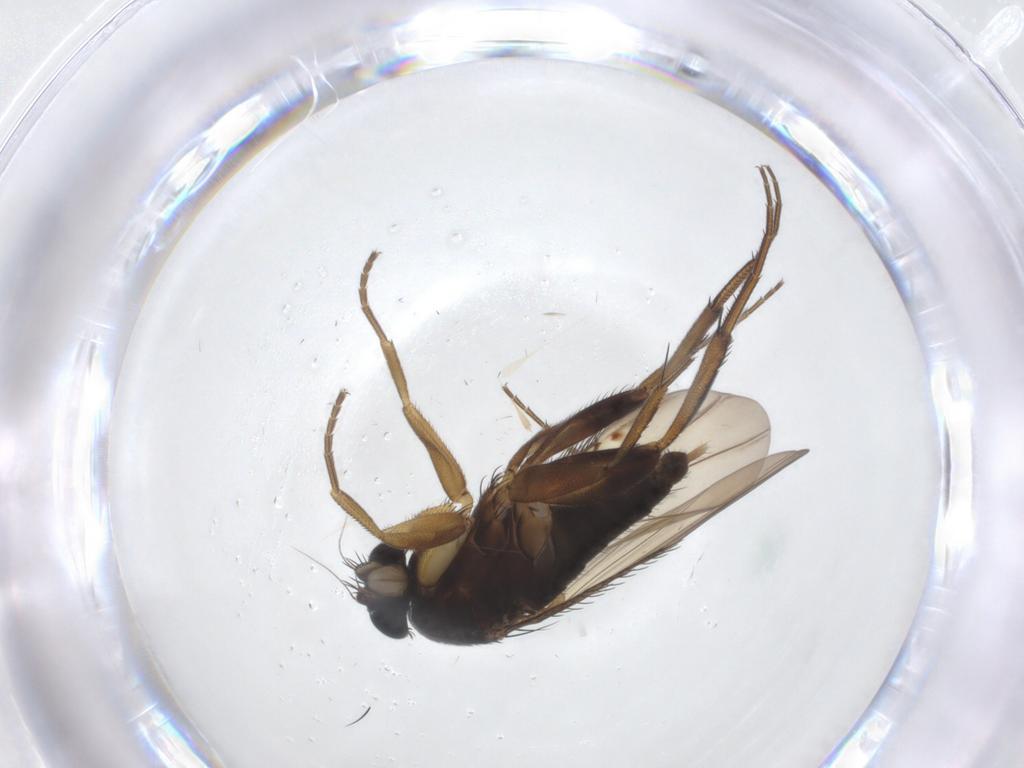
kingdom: Animalia
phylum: Arthropoda
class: Insecta
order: Diptera
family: Phoridae
